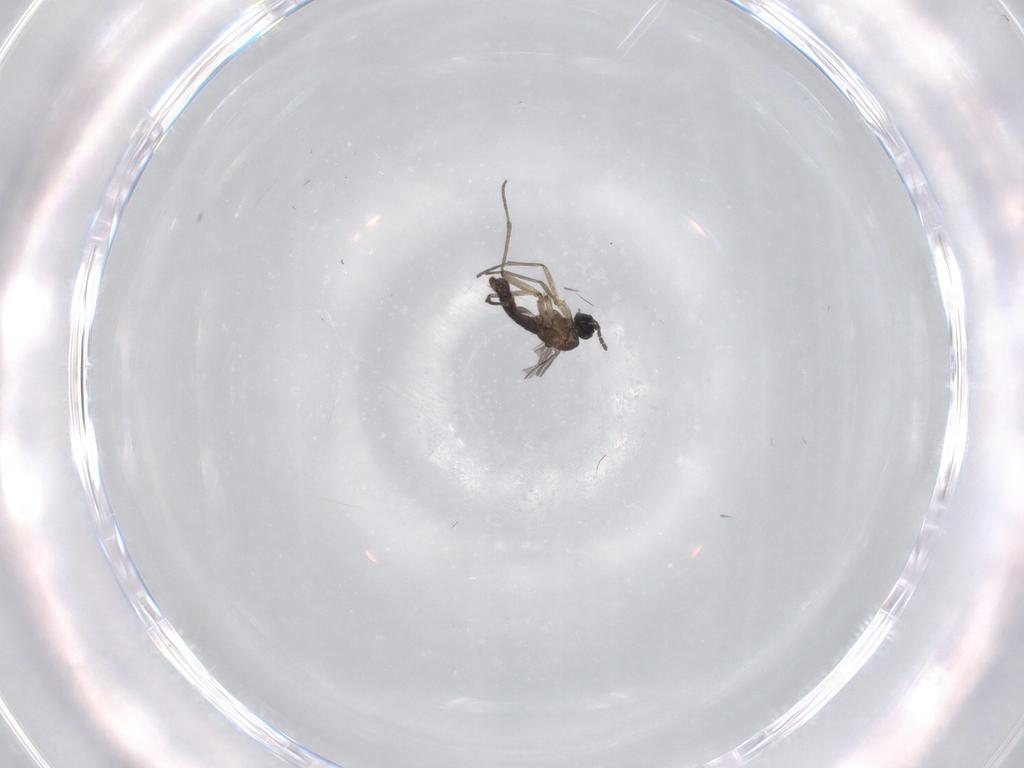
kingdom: Animalia
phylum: Arthropoda
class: Insecta
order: Diptera
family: Sciaridae
